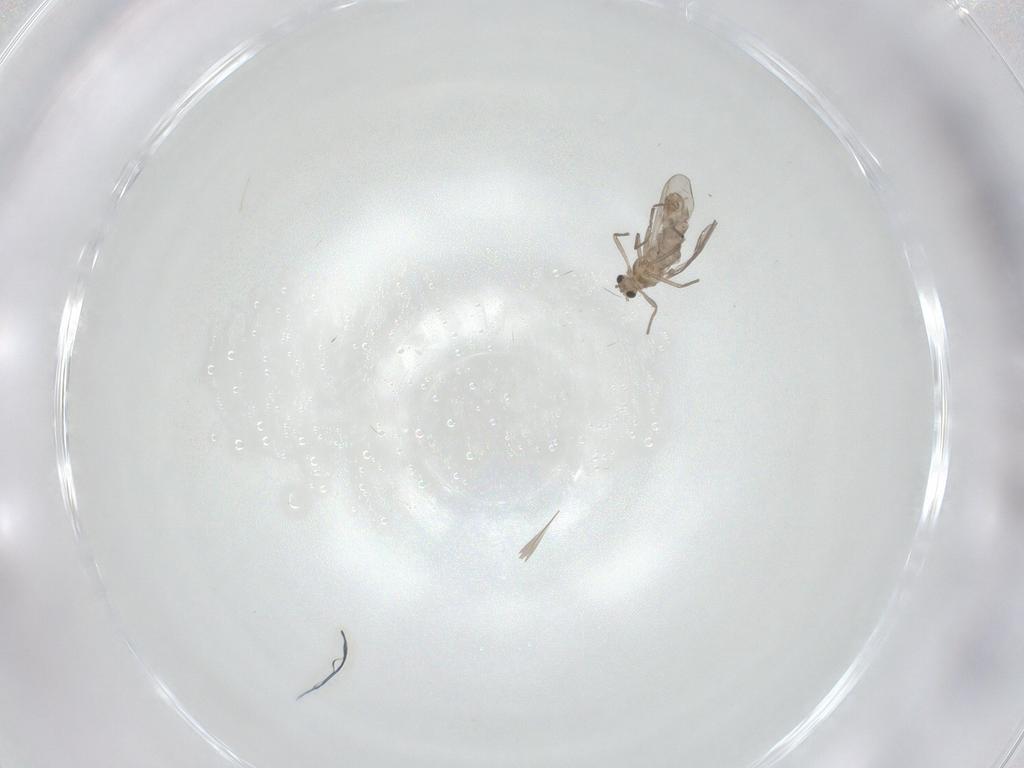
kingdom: Animalia
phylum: Arthropoda
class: Insecta
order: Diptera
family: Chironomidae
